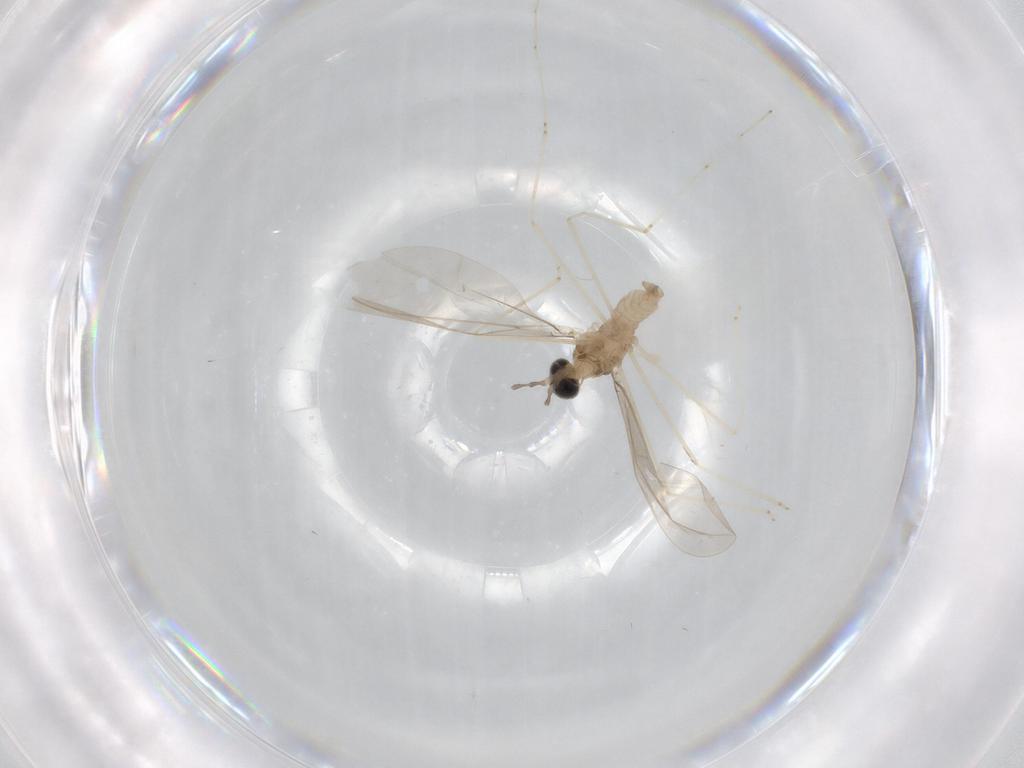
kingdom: Animalia
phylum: Arthropoda
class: Insecta
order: Diptera
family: Cecidomyiidae
